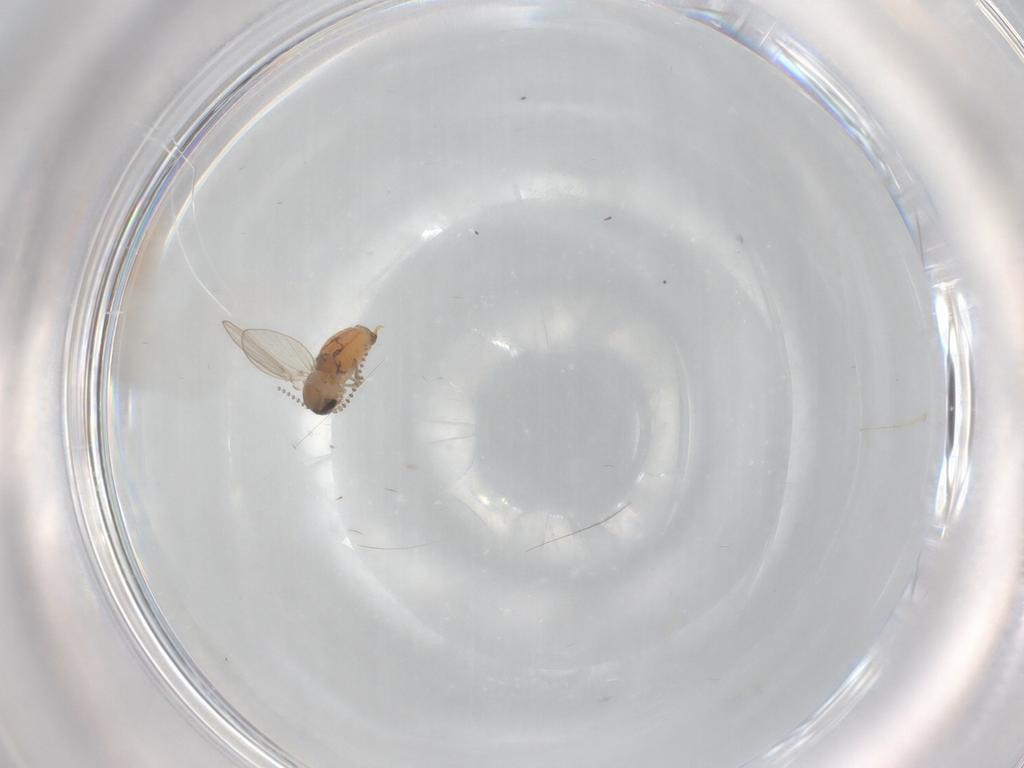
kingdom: Animalia
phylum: Arthropoda
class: Insecta
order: Diptera
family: Psychodidae
